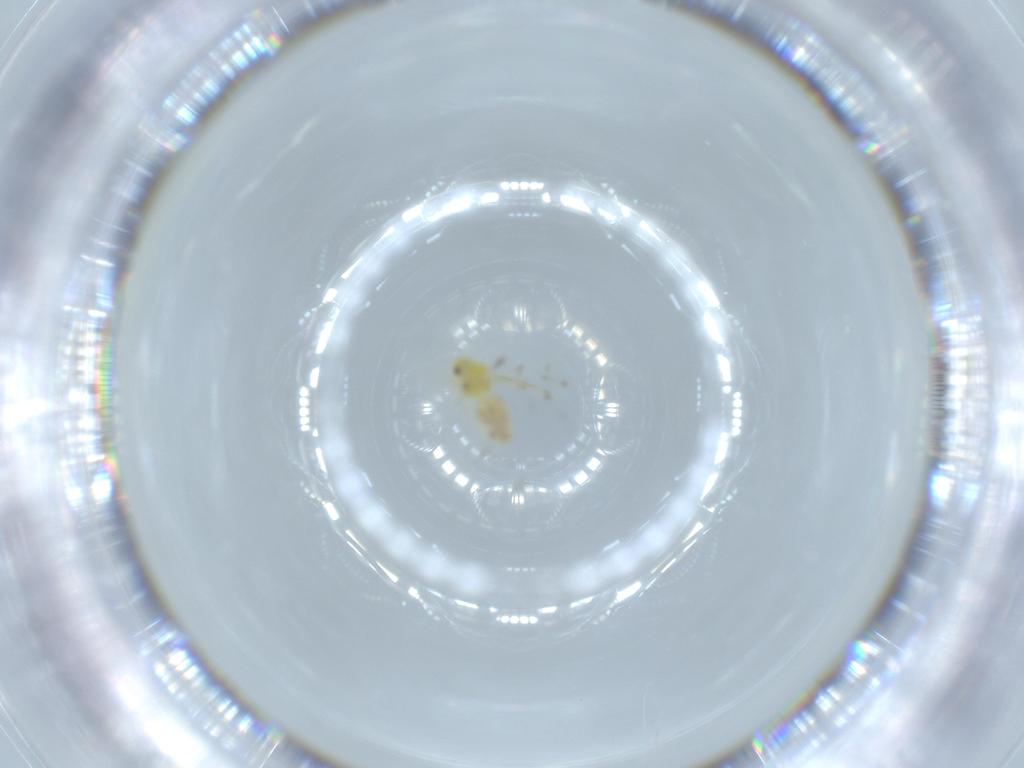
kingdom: Animalia
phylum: Arthropoda
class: Insecta
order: Hemiptera
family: Aleyrodidae
